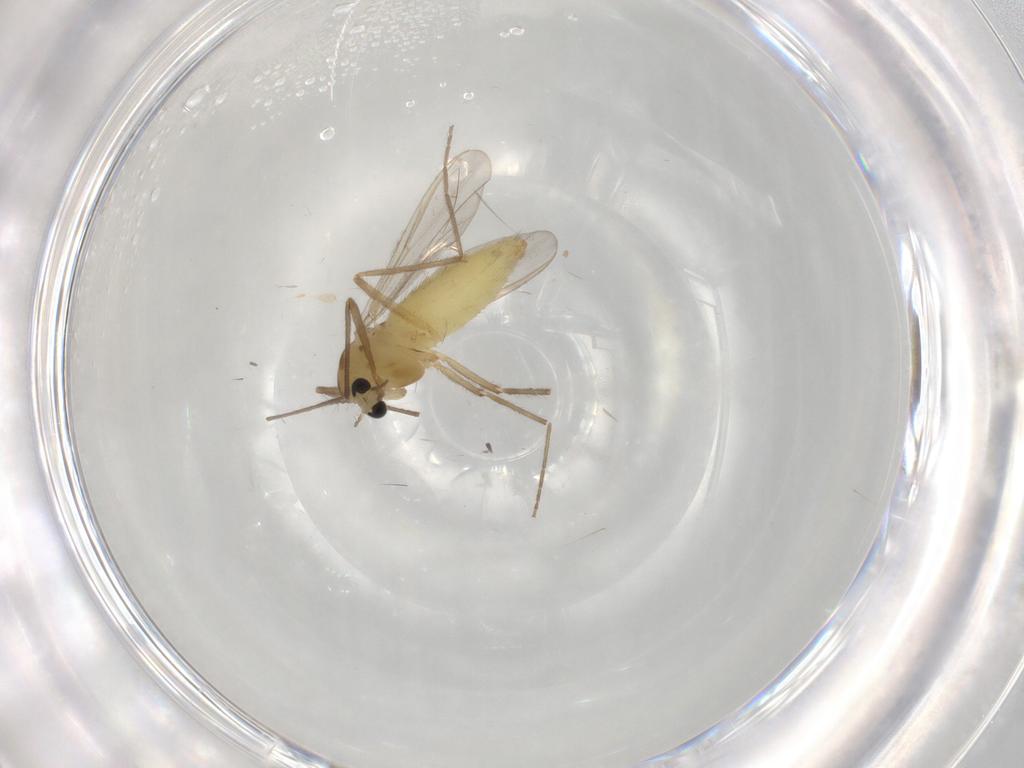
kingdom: Animalia
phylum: Arthropoda
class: Insecta
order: Diptera
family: Chironomidae
